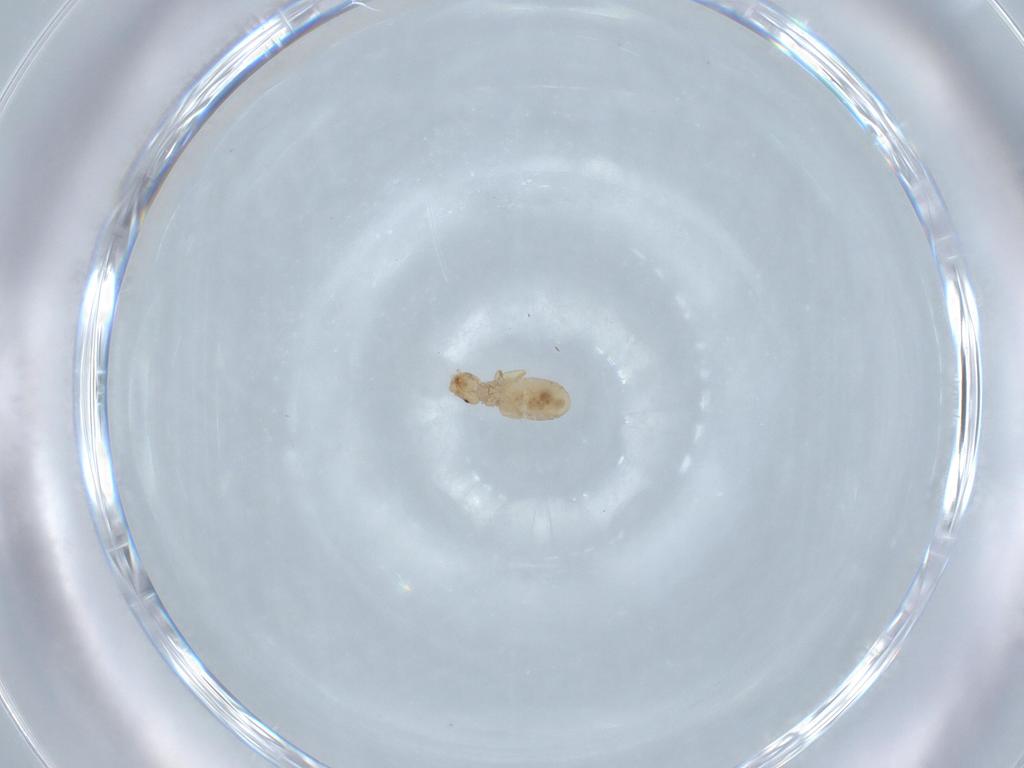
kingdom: Animalia
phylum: Arthropoda
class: Insecta
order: Psocodea
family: Liposcelididae
